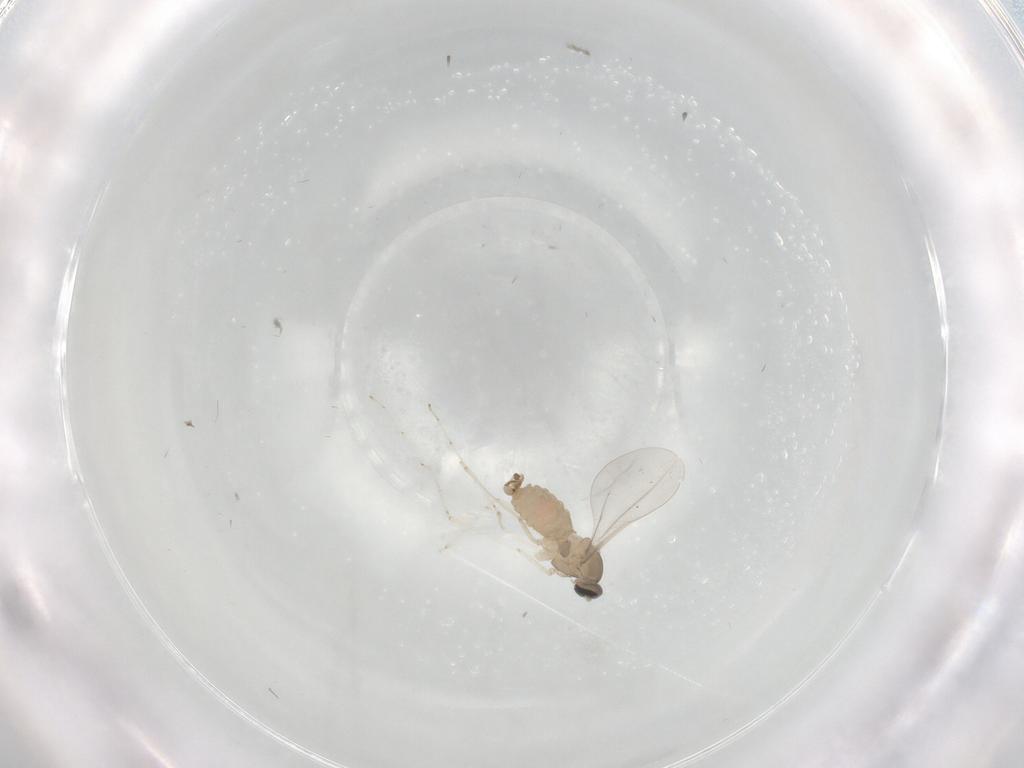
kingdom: Animalia
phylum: Arthropoda
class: Insecta
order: Diptera
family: Cecidomyiidae
